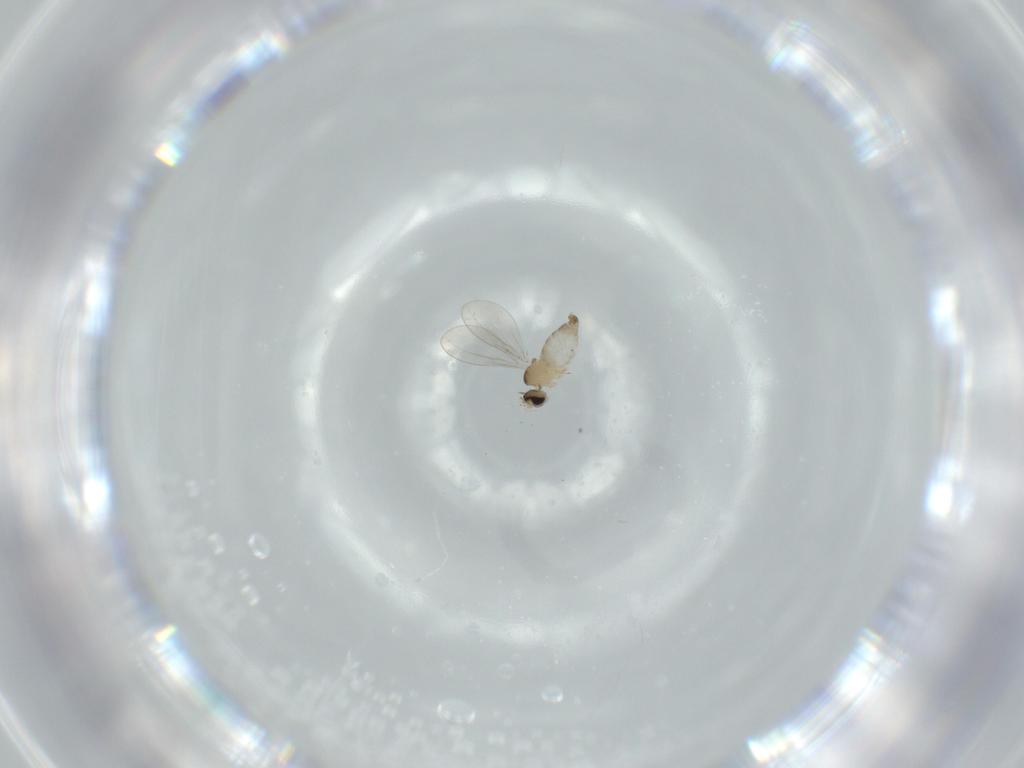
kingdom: Animalia
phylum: Arthropoda
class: Insecta
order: Diptera
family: Cecidomyiidae
